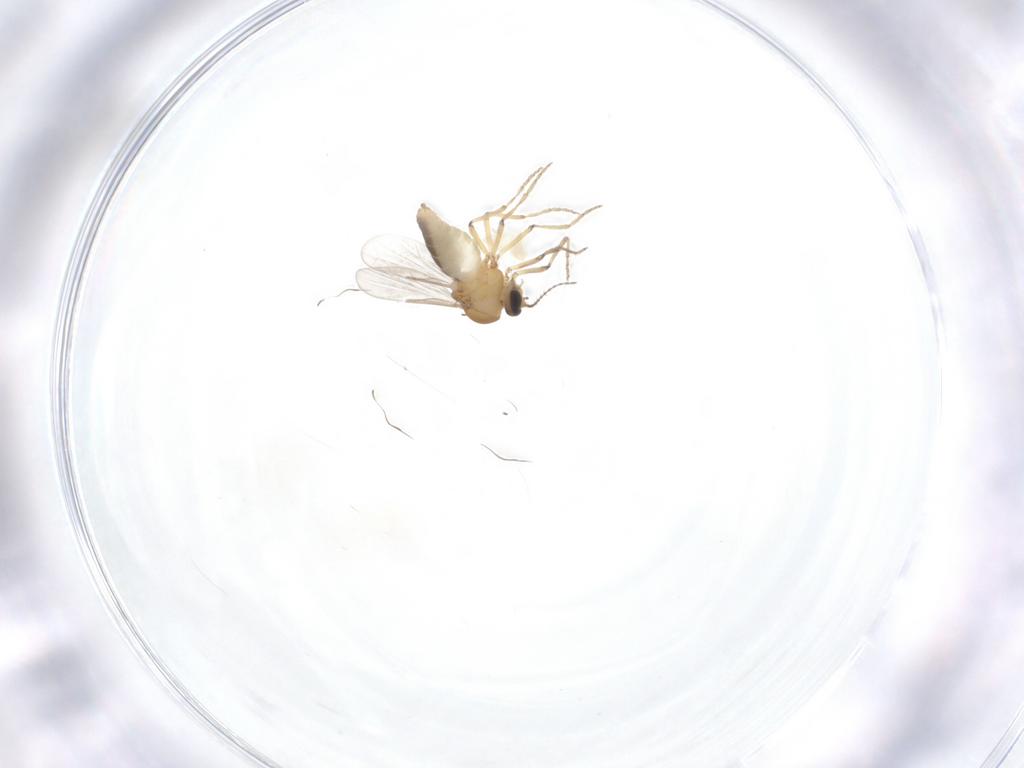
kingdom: Animalia
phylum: Arthropoda
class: Insecta
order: Diptera
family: Ceratopogonidae
